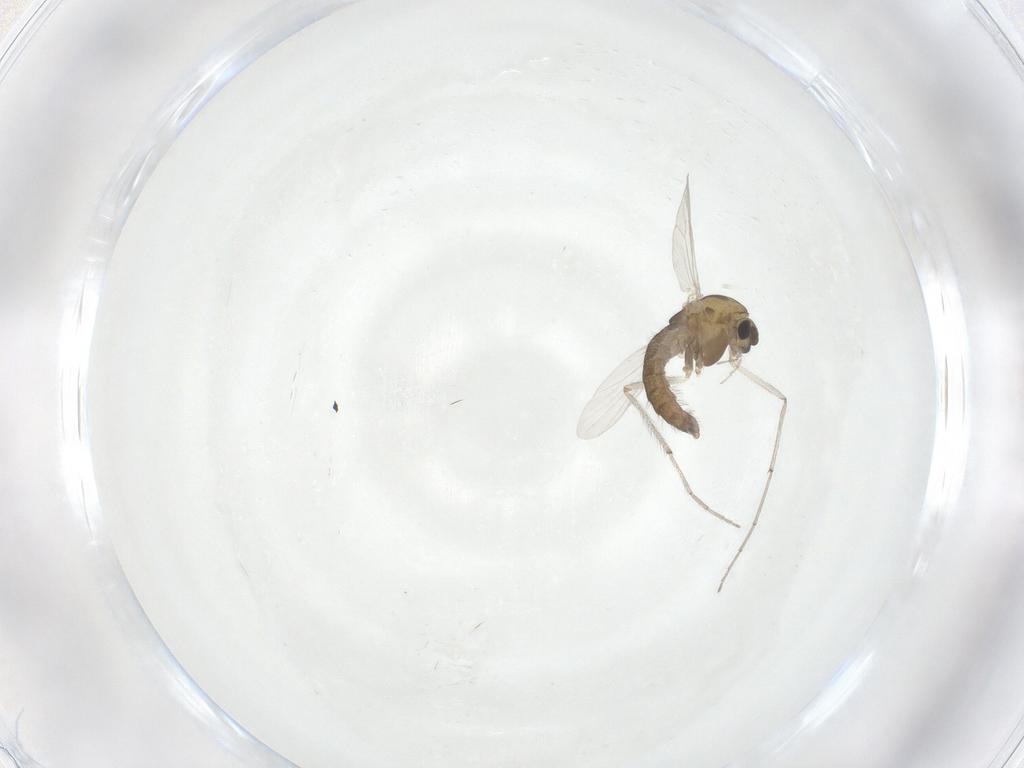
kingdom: Animalia
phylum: Arthropoda
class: Insecta
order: Diptera
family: Chironomidae
